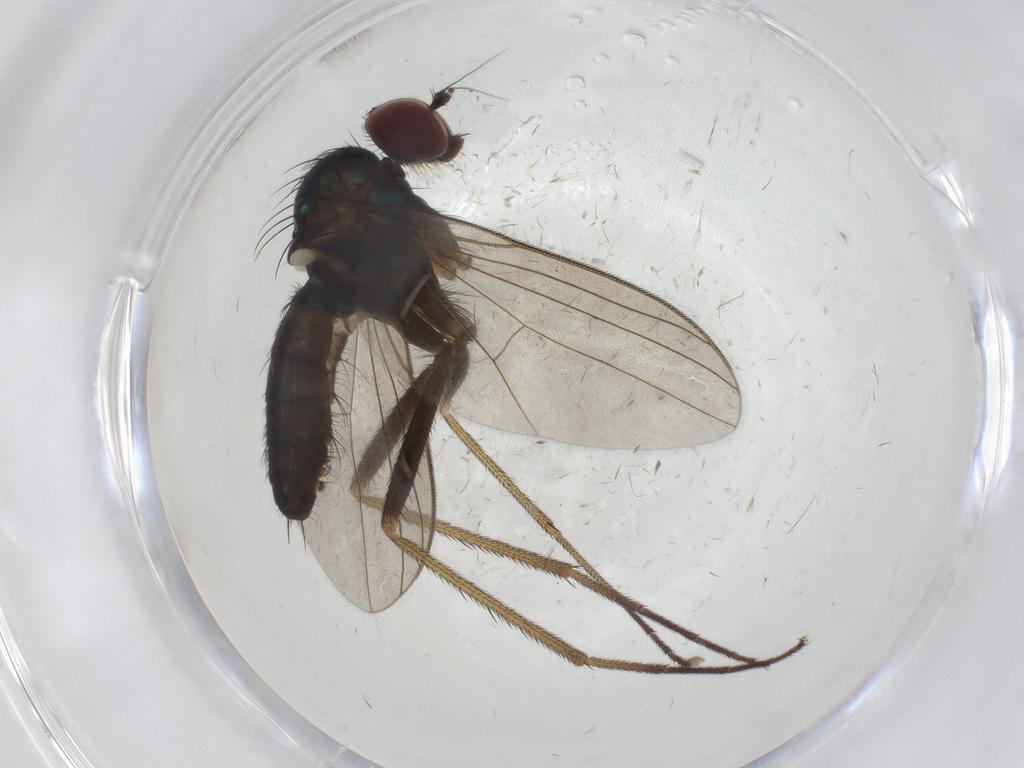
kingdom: Animalia
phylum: Arthropoda
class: Insecta
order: Diptera
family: Dolichopodidae
